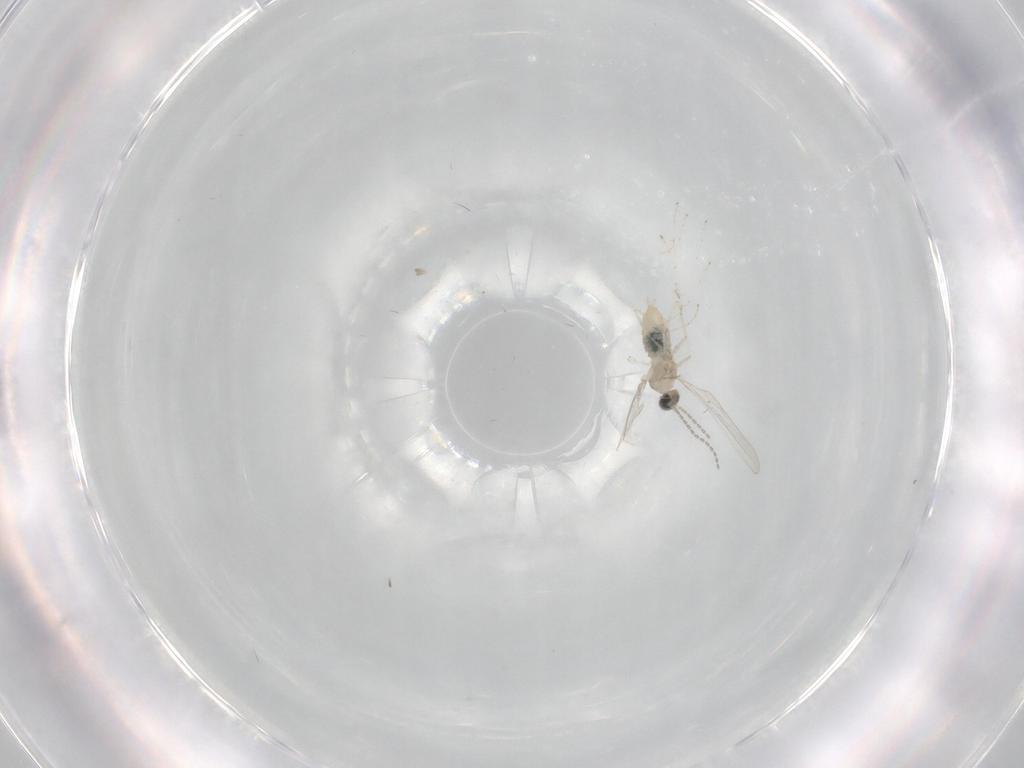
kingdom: Animalia
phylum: Arthropoda
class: Insecta
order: Diptera
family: Cecidomyiidae
